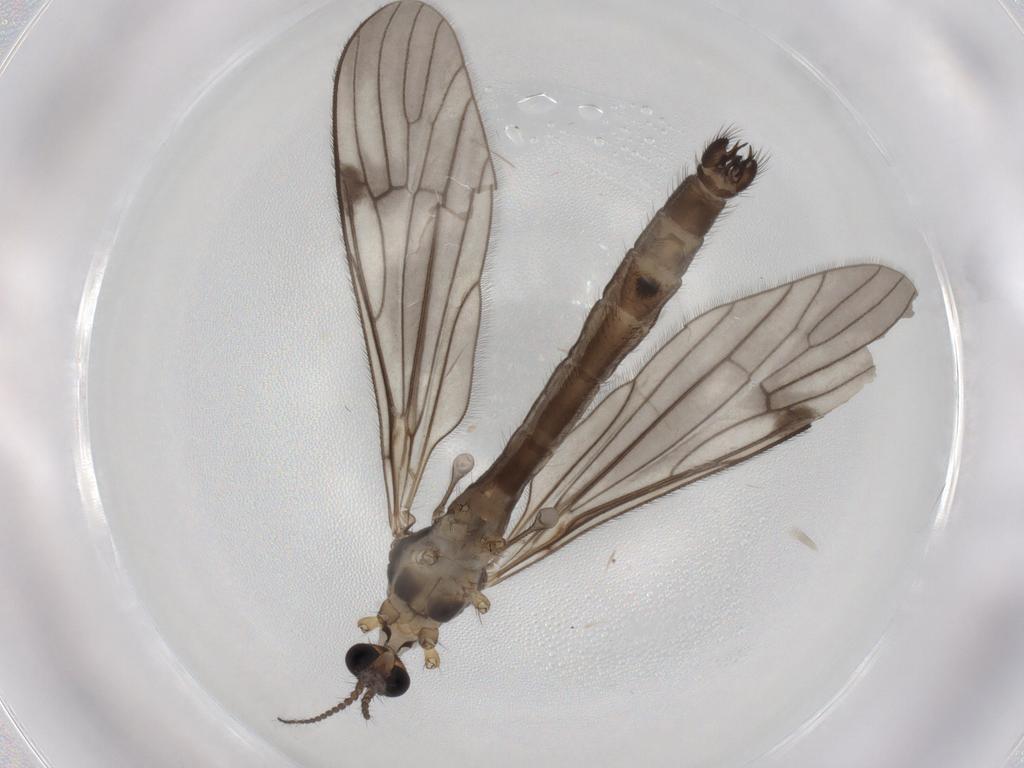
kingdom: Animalia
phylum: Arthropoda
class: Insecta
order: Diptera
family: Limoniidae
